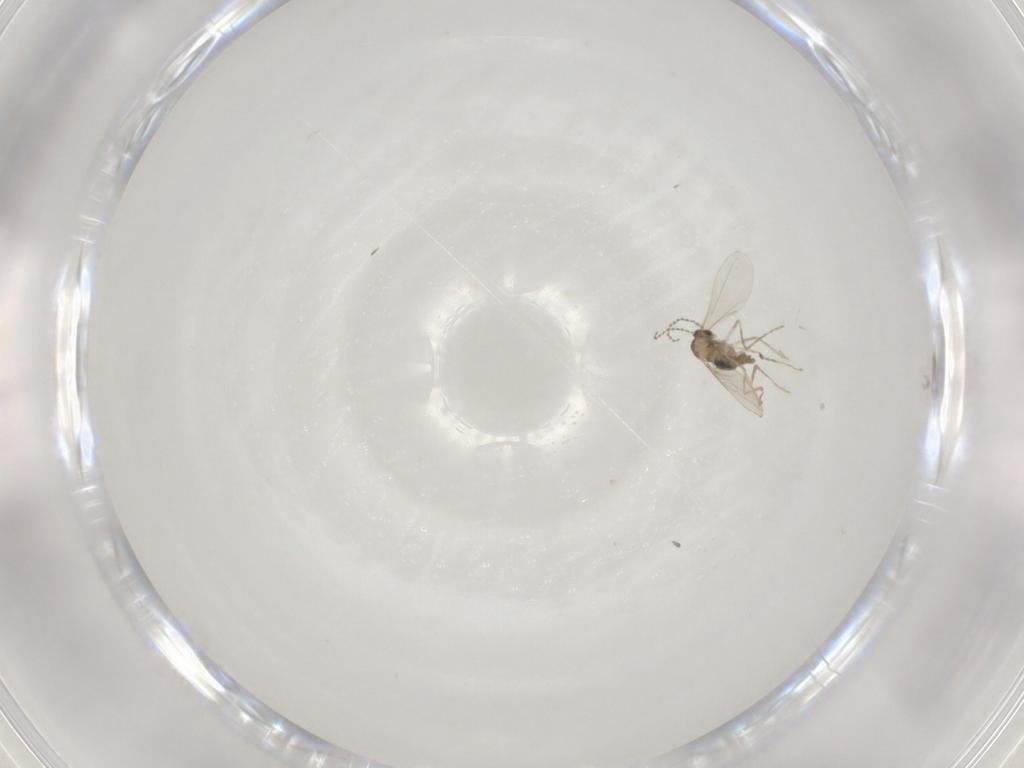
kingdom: Animalia
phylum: Arthropoda
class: Insecta
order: Diptera
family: Cecidomyiidae
